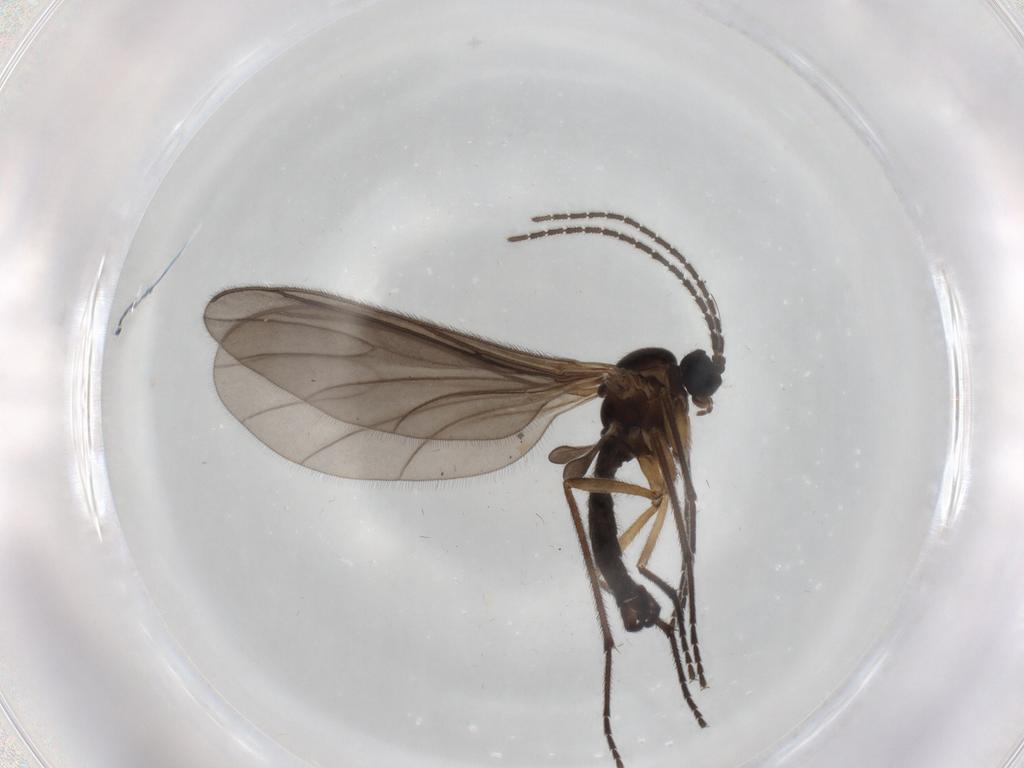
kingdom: Animalia
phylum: Arthropoda
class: Insecta
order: Diptera
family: Sciaridae
